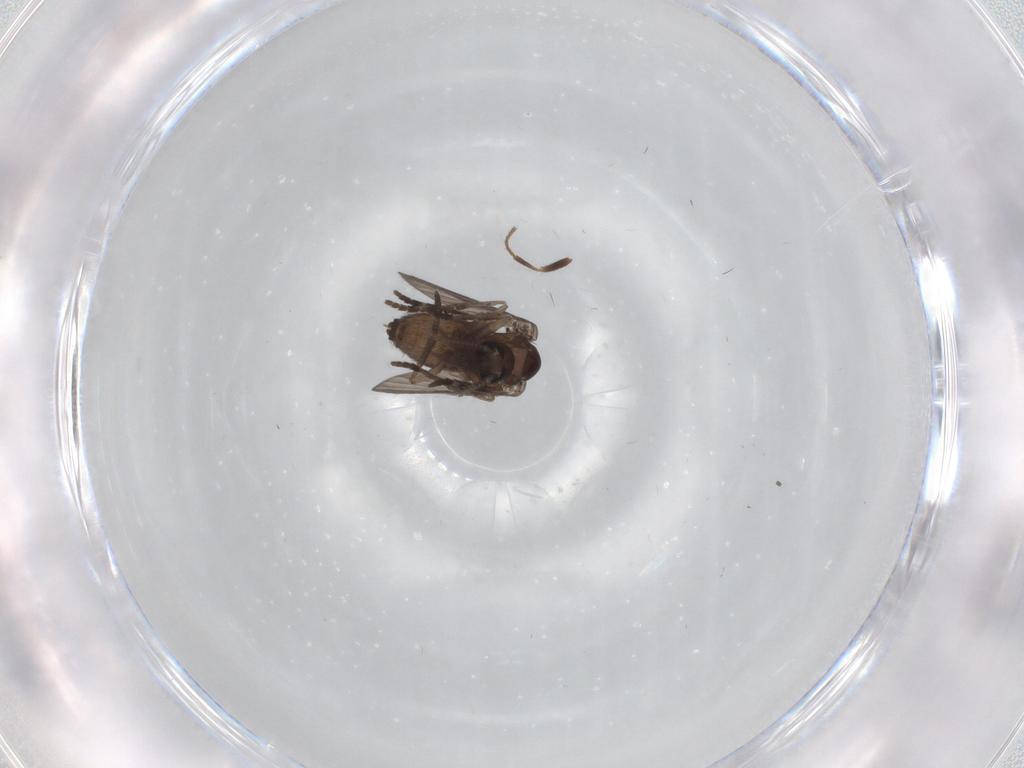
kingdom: Animalia
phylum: Arthropoda
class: Insecta
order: Diptera
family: Psychodidae
